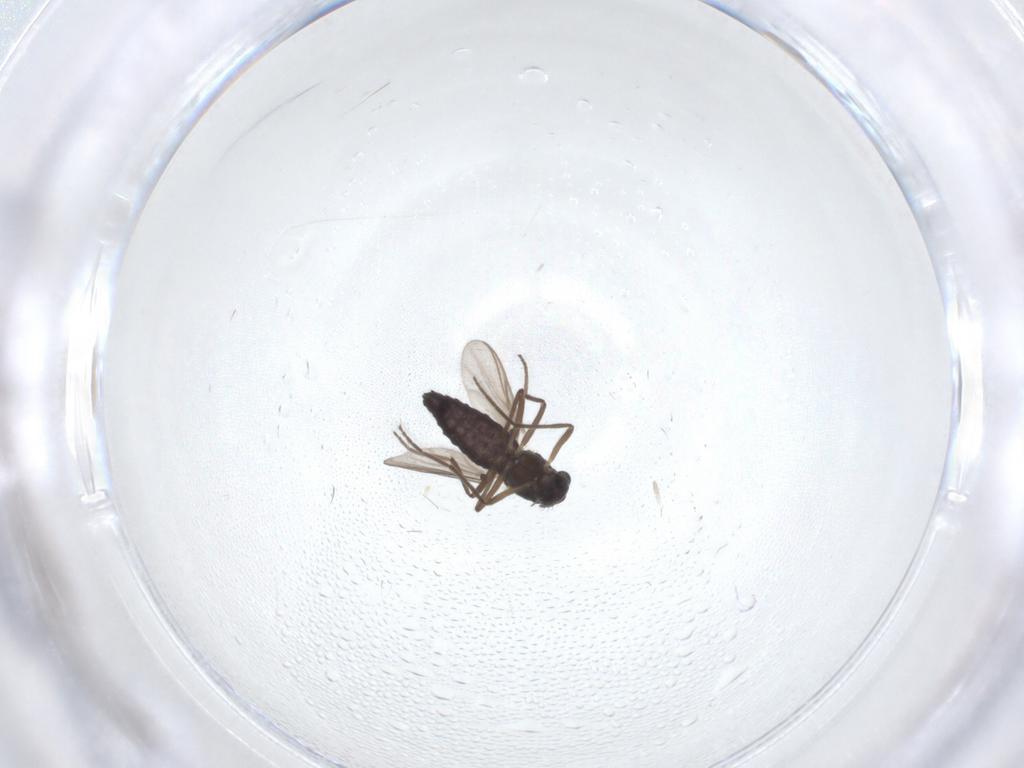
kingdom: Animalia
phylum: Arthropoda
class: Insecta
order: Diptera
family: Chironomidae
